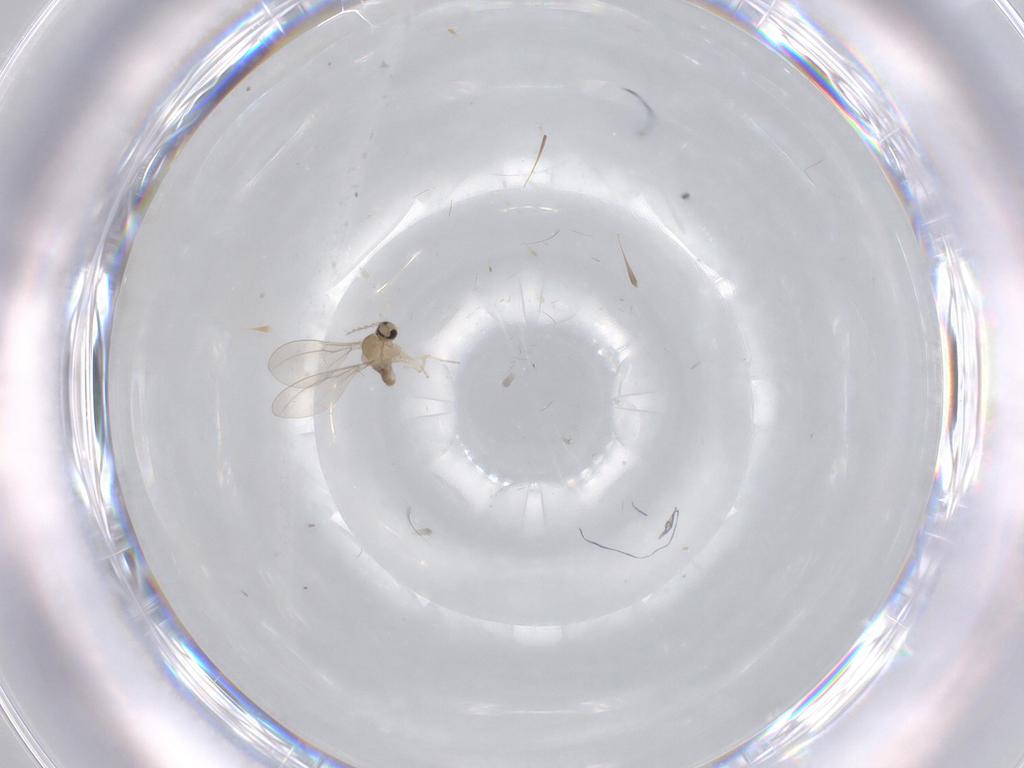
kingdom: Animalia
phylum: Arthropoda
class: Insecta
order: Diptera
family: Cecidomyiidae
